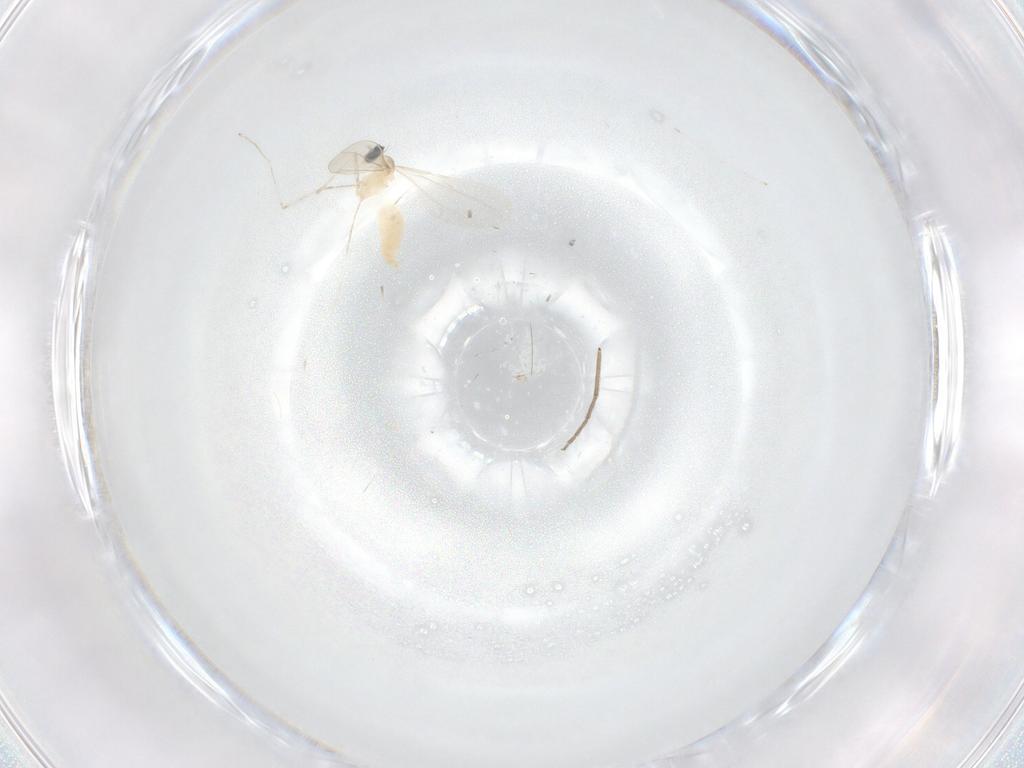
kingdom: Animalia
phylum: Arthropoda
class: Insecta
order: Diptera
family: Chironomidae
